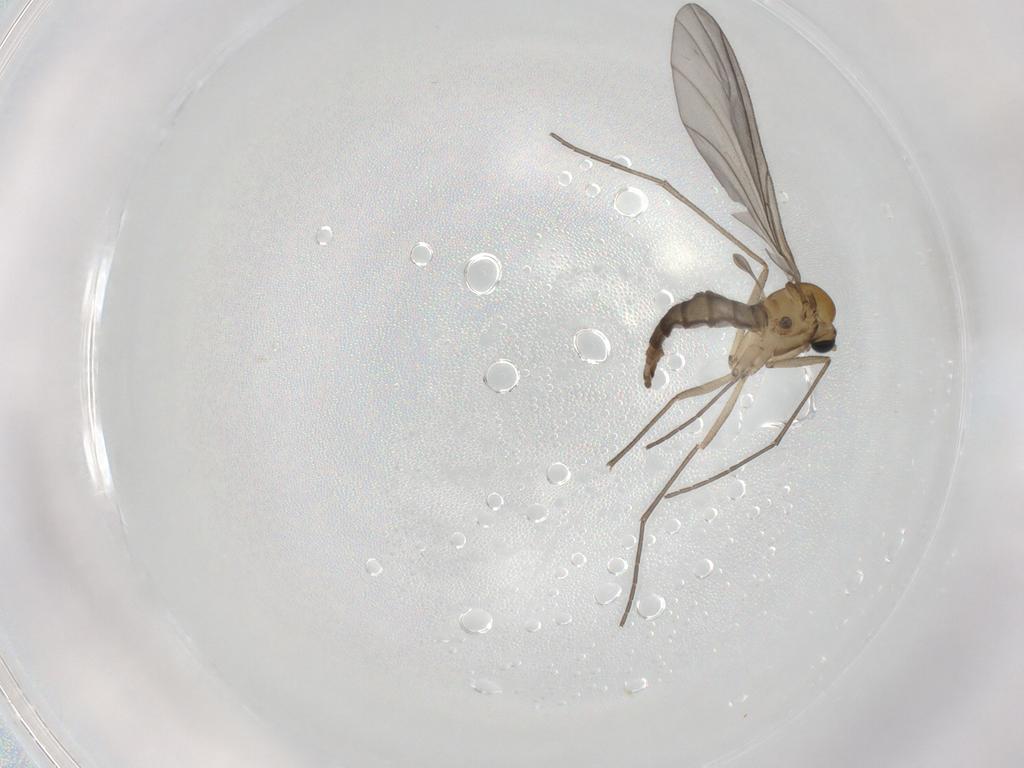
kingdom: Animalia
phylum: Arthropoda
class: Insecta
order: Diptera
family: Sciaridae
